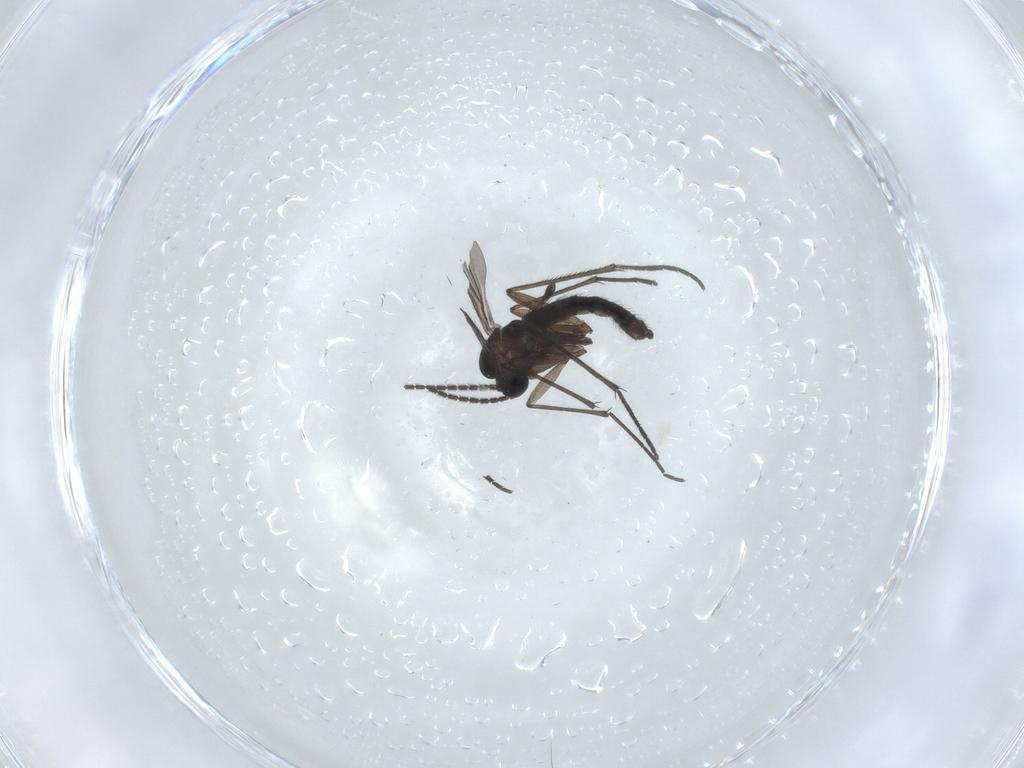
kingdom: Animalia
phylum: Arthropoda
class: Insecta
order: Diptera
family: Sciaridae
